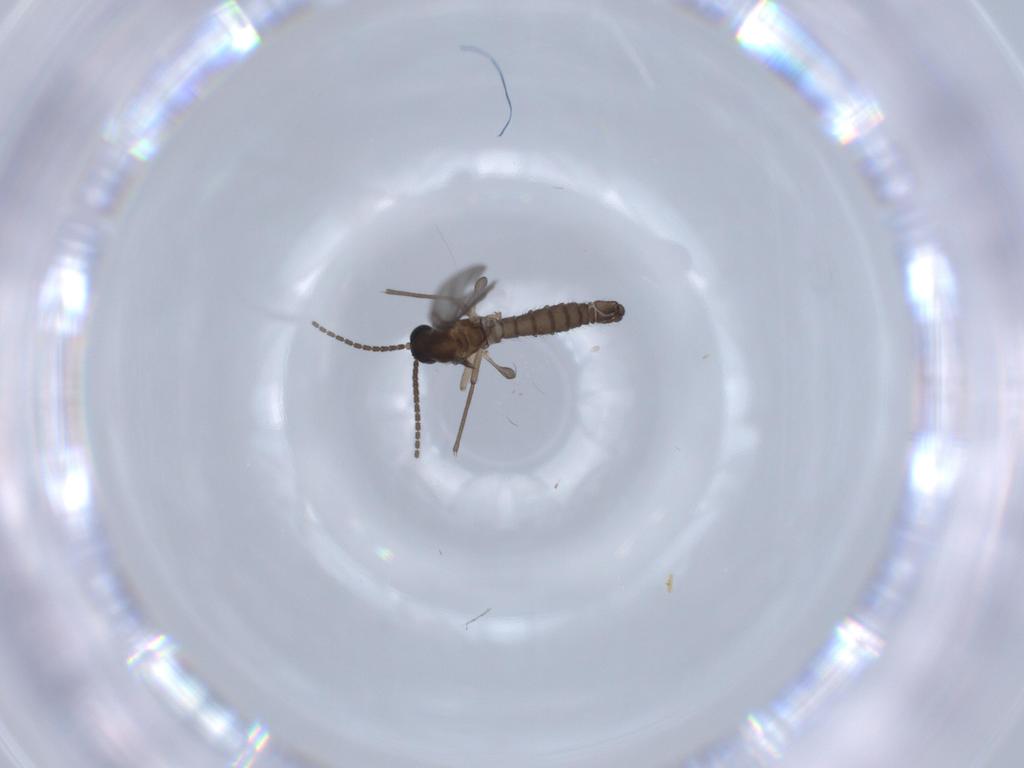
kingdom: Animalia
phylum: Arthropoda
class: Insecta
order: Diptera
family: Sciaridae
